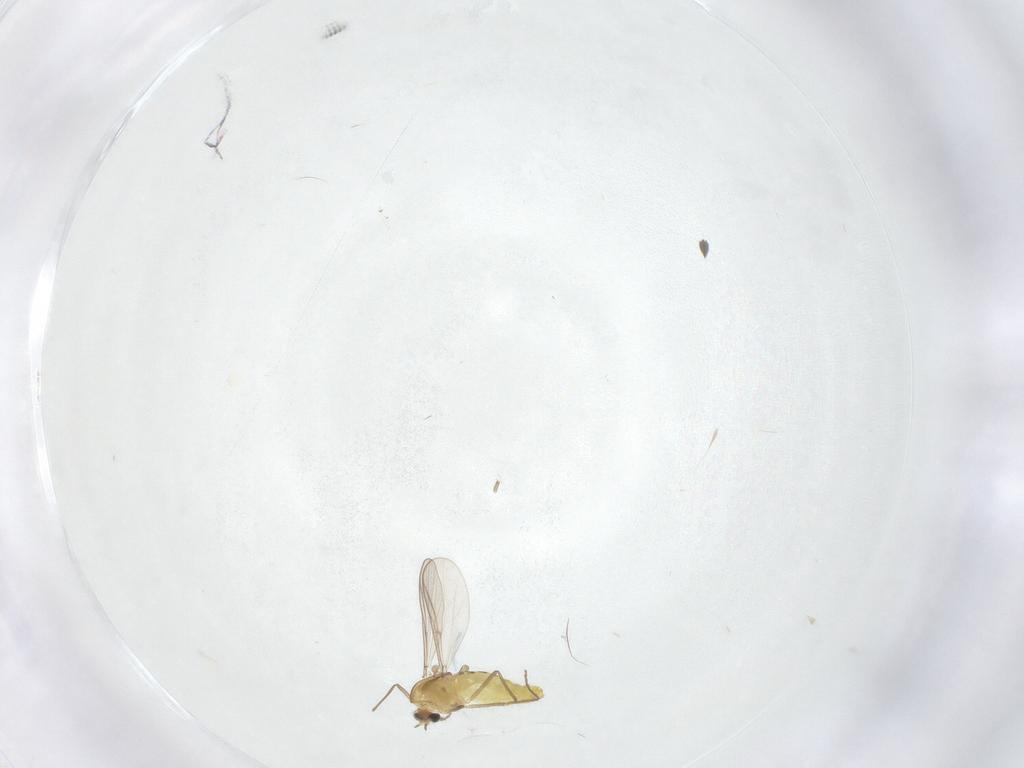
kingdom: Animalia
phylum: Arthropoda
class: Insecta
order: Diptera
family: Chironomidae
